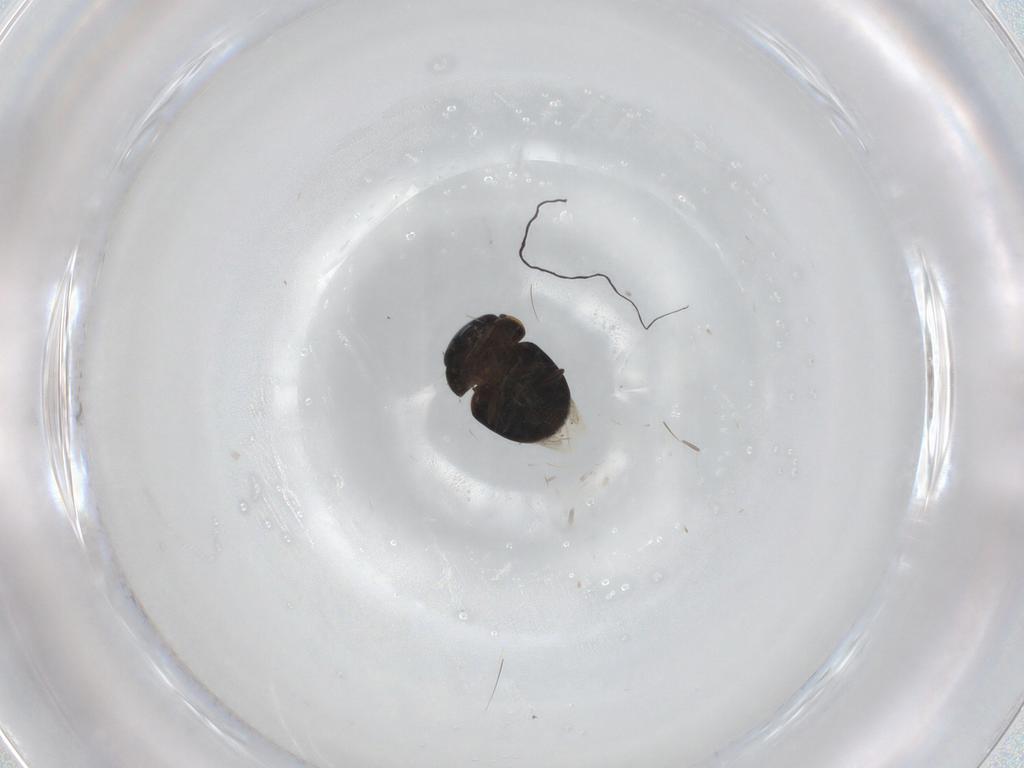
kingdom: Animalia
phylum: Arthropoda
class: Insecta
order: Coleoptera
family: Cybocephalidae
